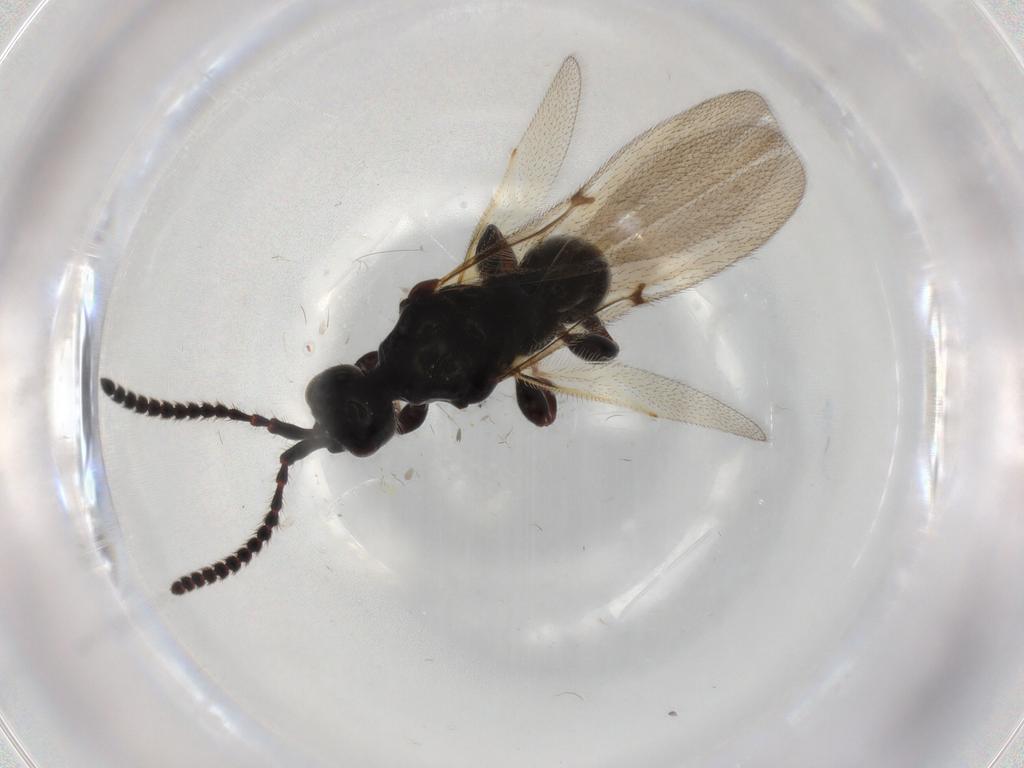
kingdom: Animalia
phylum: Arthropoda
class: Insecta
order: Hymenoptera
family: Diapriidae
